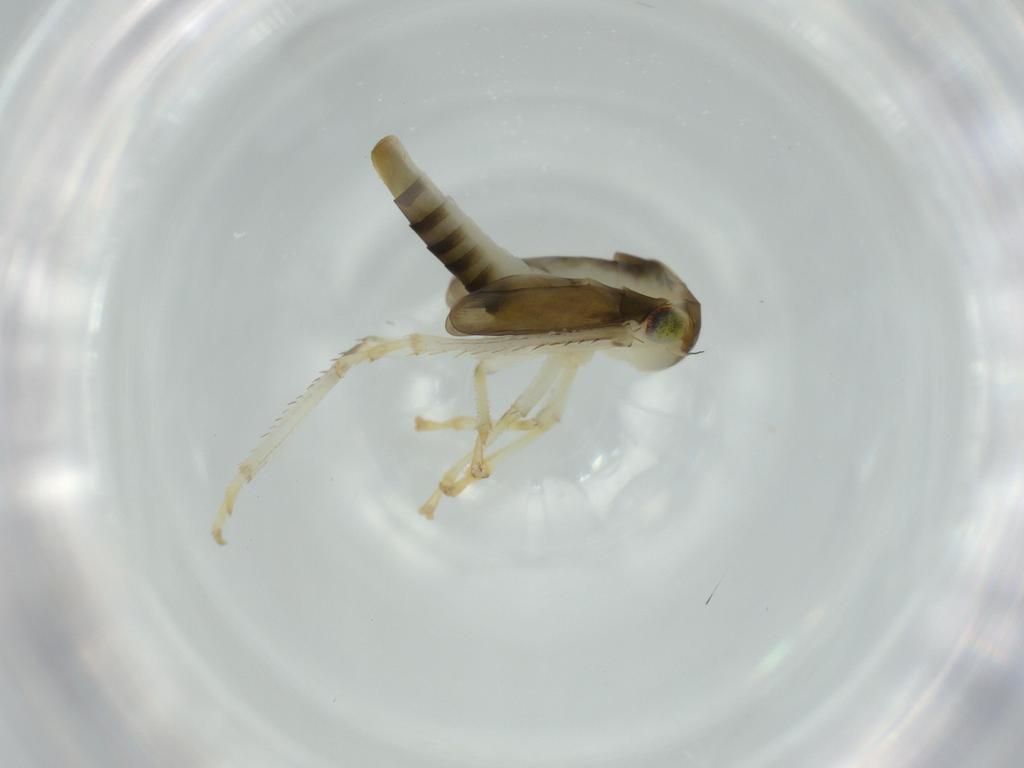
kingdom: Animalia
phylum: Arthropoda
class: Insecta
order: Hemiptera
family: Cicadellidae
